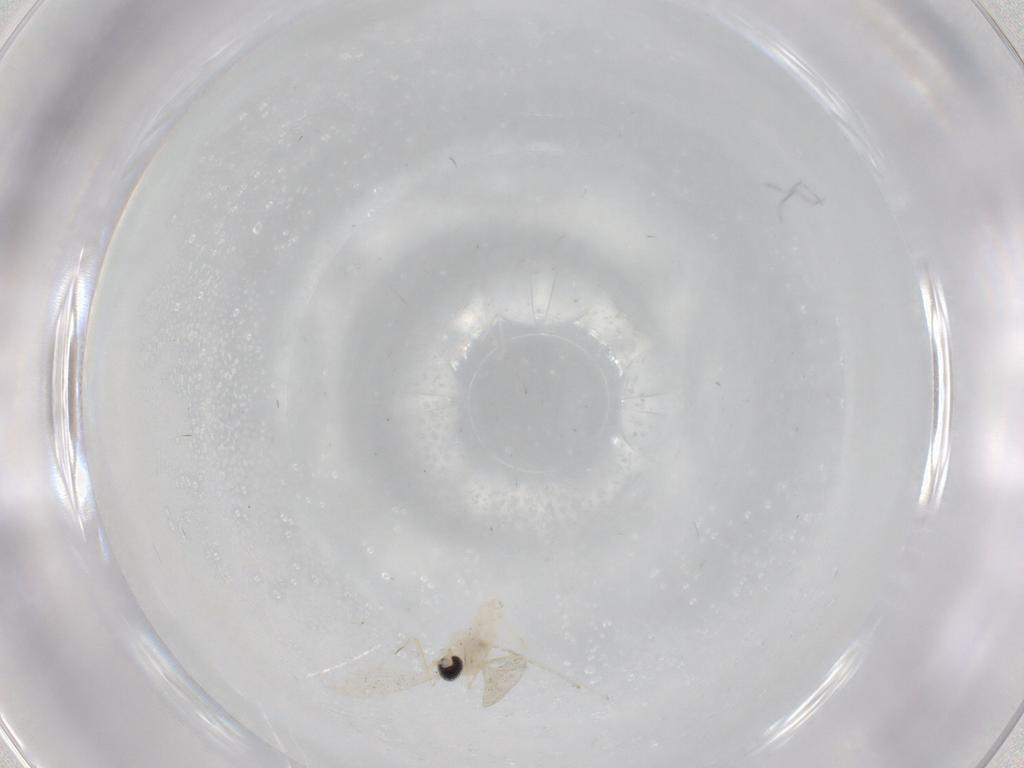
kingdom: Animalia
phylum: Arthropoda
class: Insecta
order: Diptera
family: Cecidomyiidae
